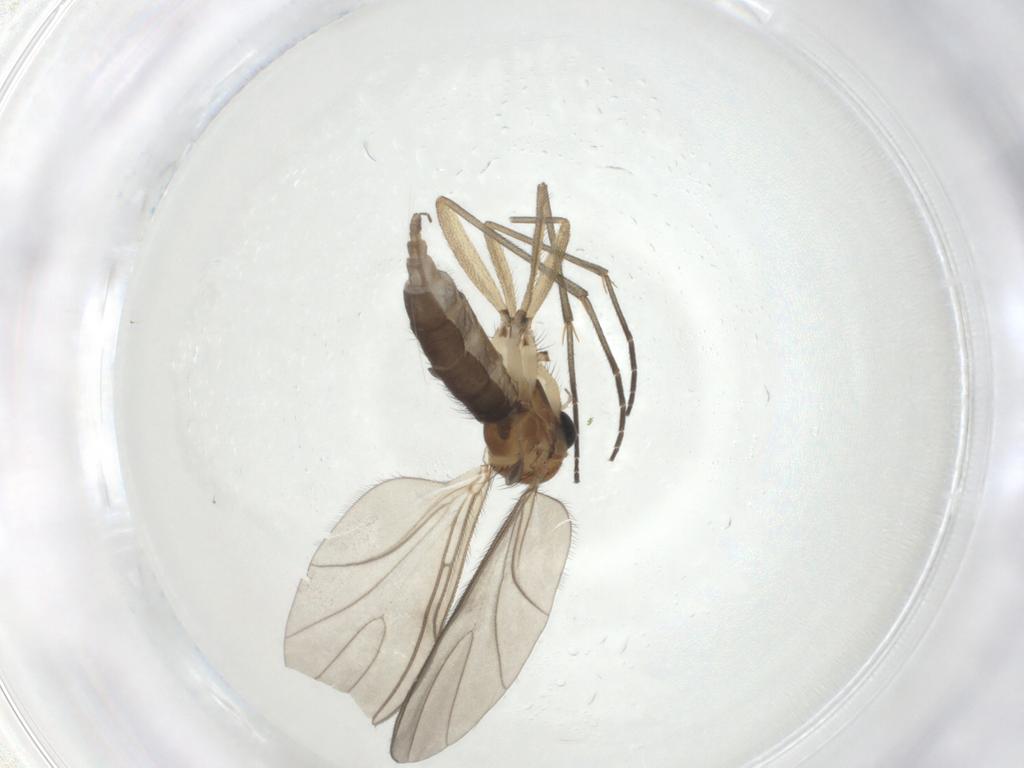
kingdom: Animalia
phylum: Arthropoda
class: Insecta
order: Diptera
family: Sciaridae
